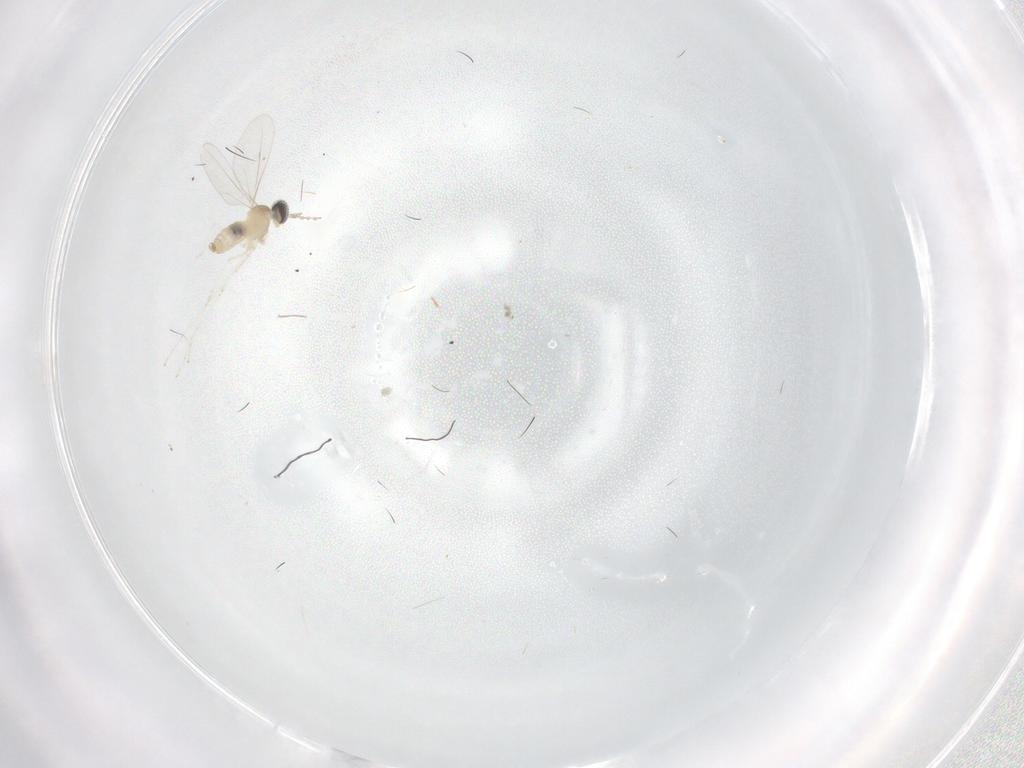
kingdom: Animalia
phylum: Arthropoda
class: Insecta
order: Diptera
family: Cecidomyiidae
